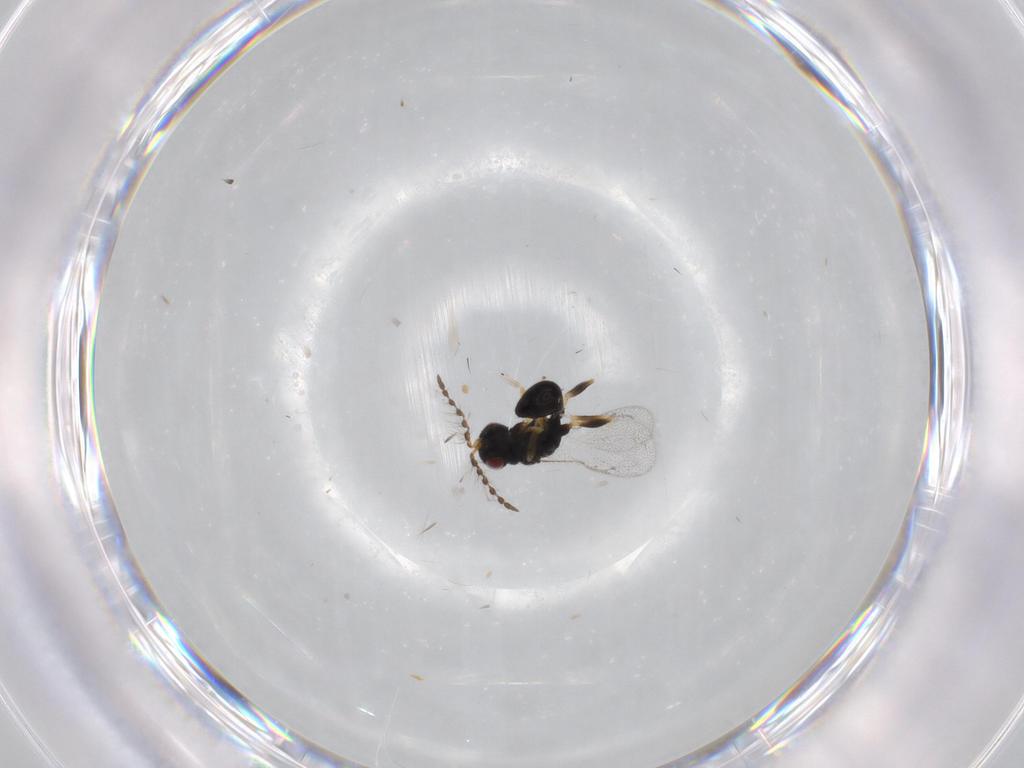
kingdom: Animalia
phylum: Arthropoda
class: Insecta
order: Hymenoptera
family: Eurytomidae
